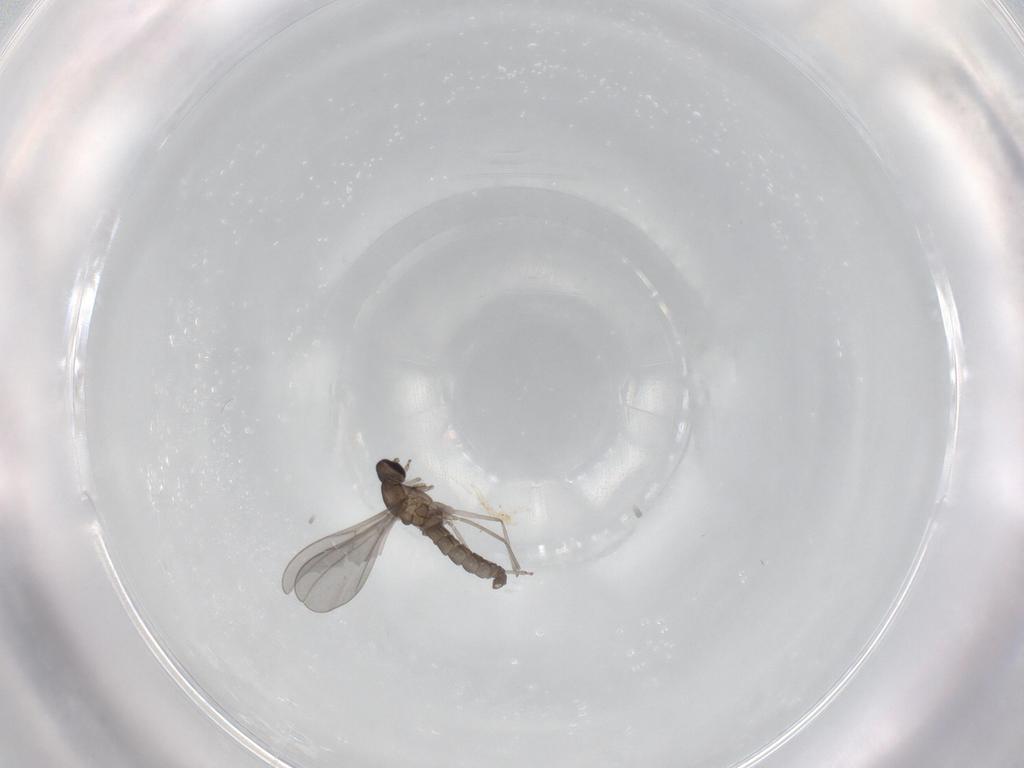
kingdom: Animalia
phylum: Arthropoda
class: Insecta
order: Diptera
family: Cecidomyiidae
